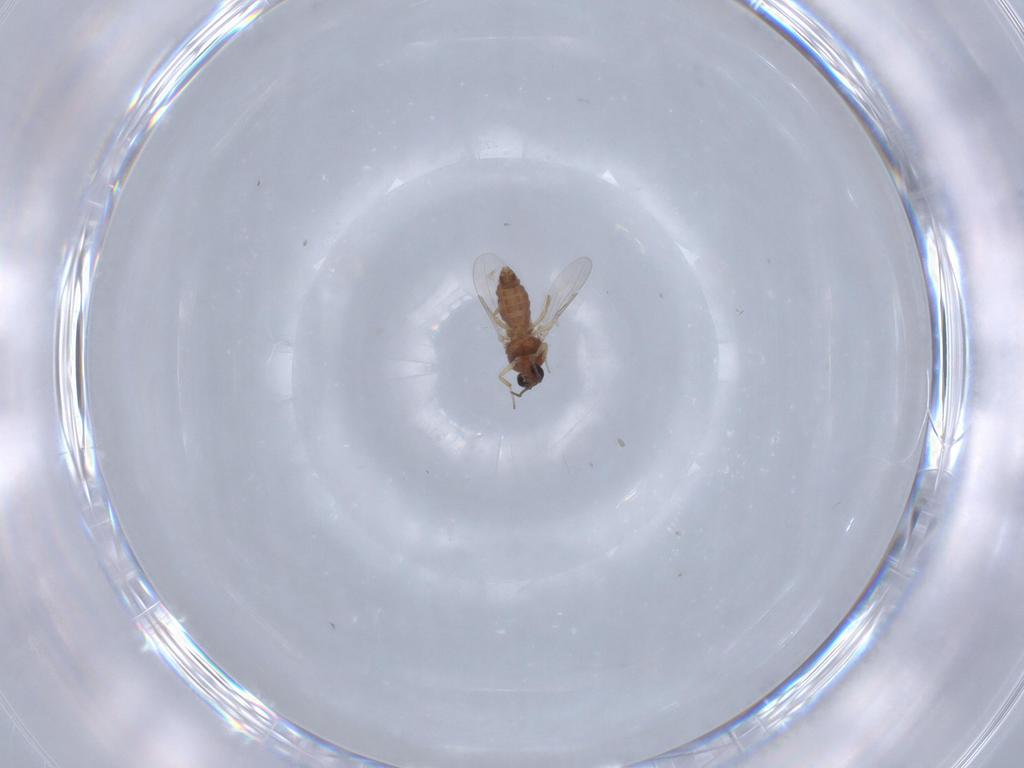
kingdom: Animalia
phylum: Arthropoda
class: Insecta
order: Diptera
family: Ceratopogonidae
